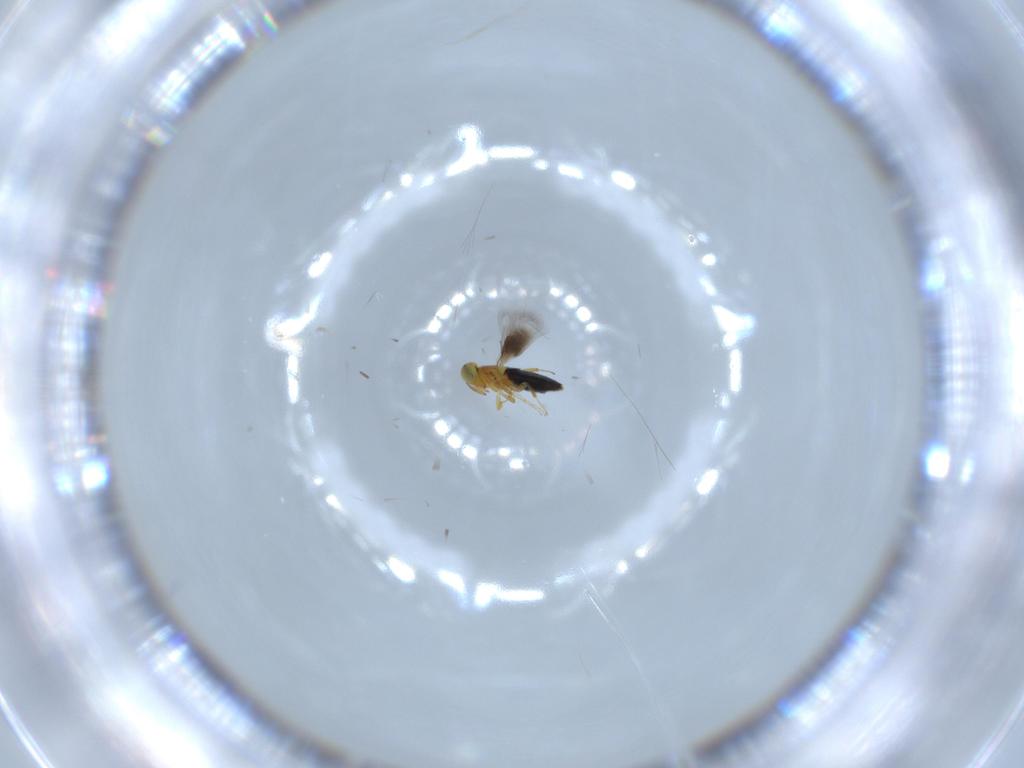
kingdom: Animalia
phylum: Arthropoda
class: Insecta
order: Hymenoptera
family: Signiphoridae
